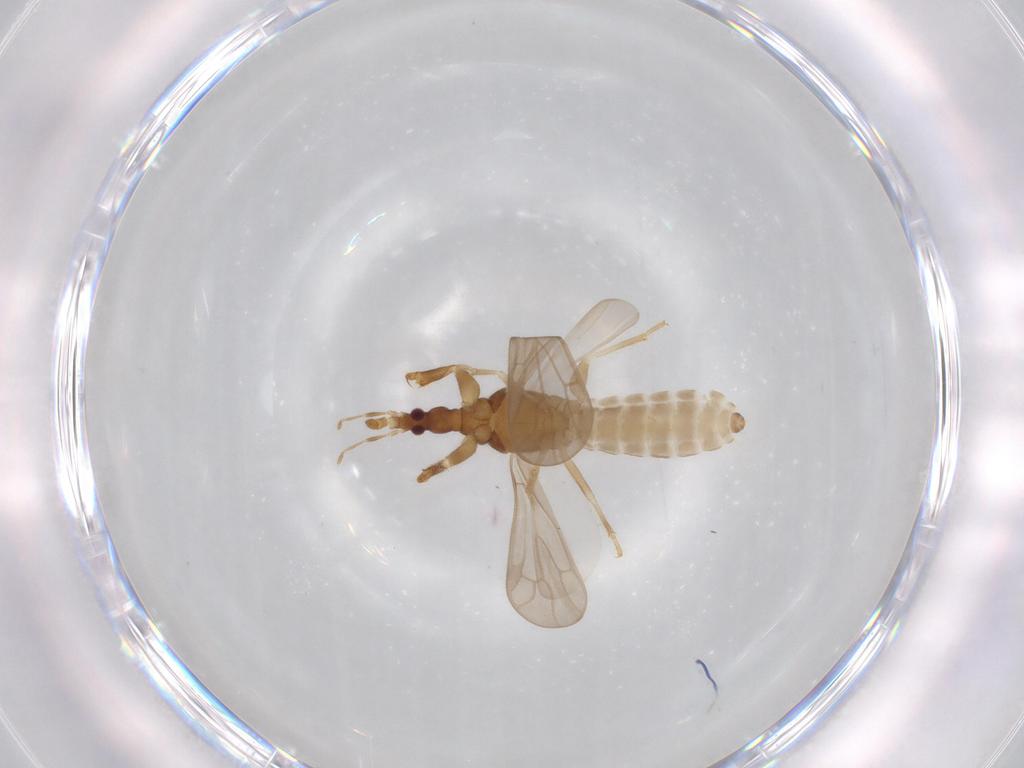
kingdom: Animalia
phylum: Arthropoda
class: Insecta
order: Hemiptera
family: Enicocephalidae
